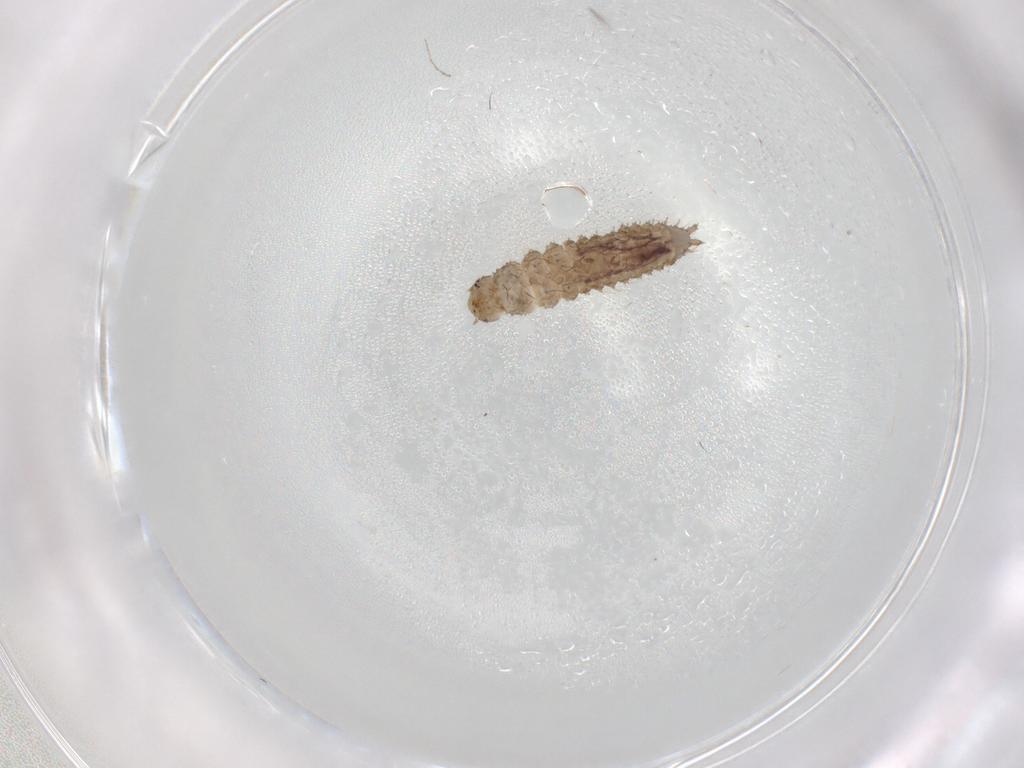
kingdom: Animalia
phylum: Arthropoda
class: Insecta
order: Coleoptera
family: Erotylidae
